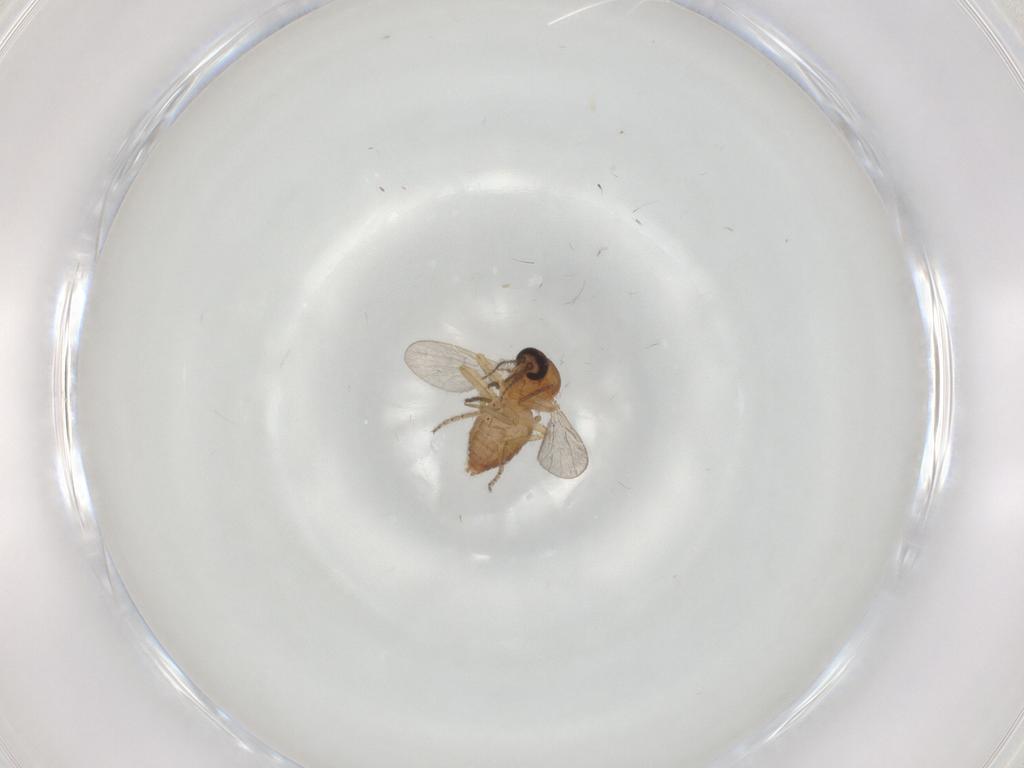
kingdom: Animalia
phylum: Arthropoda
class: Insecta
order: Diptera
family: Ceratopogonidae
